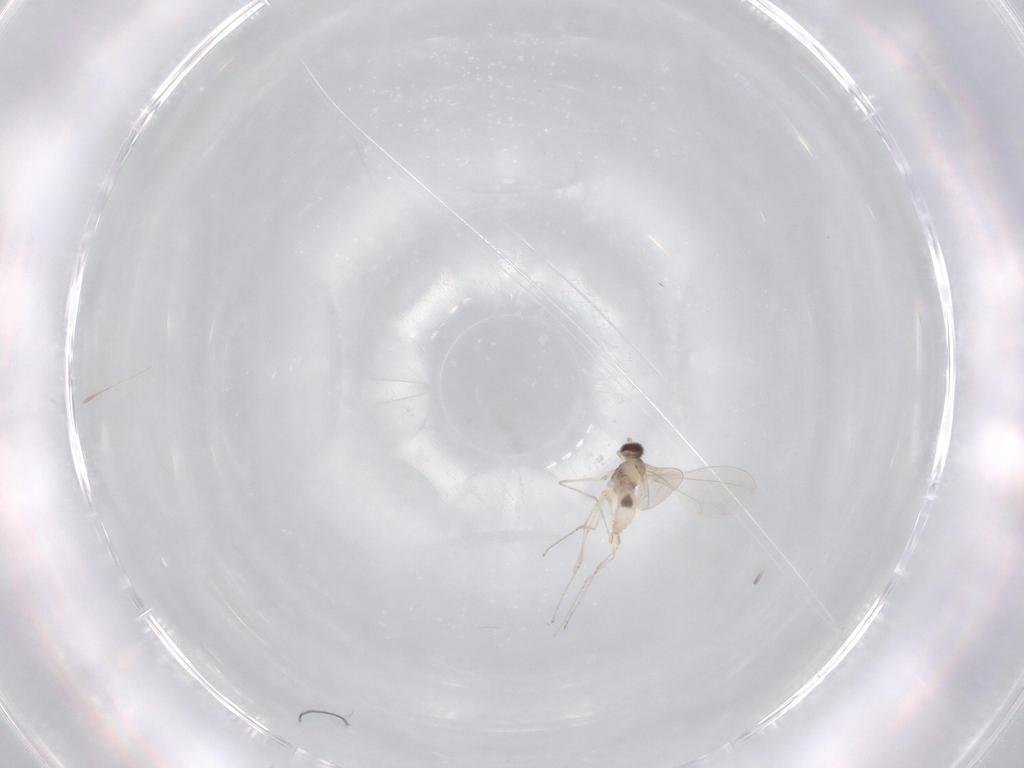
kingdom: Animalia
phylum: Arthropoda
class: Insecta
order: Diptera
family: Cecidomyiidae
